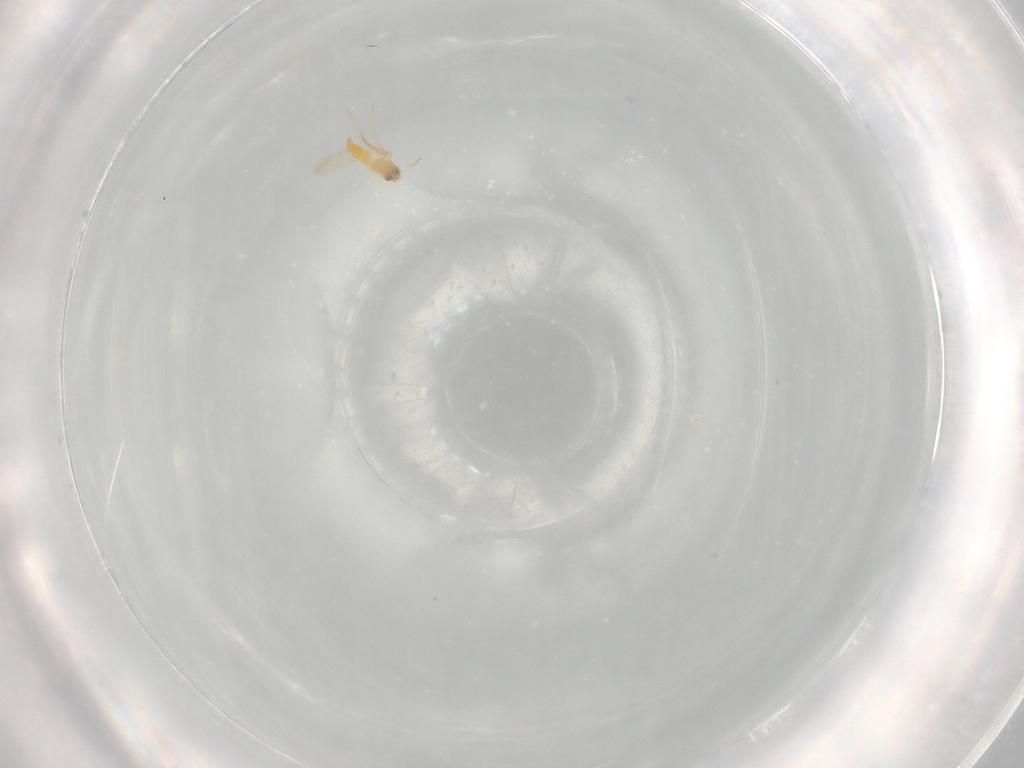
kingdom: Animalia
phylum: Arthropoda
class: Insecta
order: Hemiptera
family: Aleyrodidae
